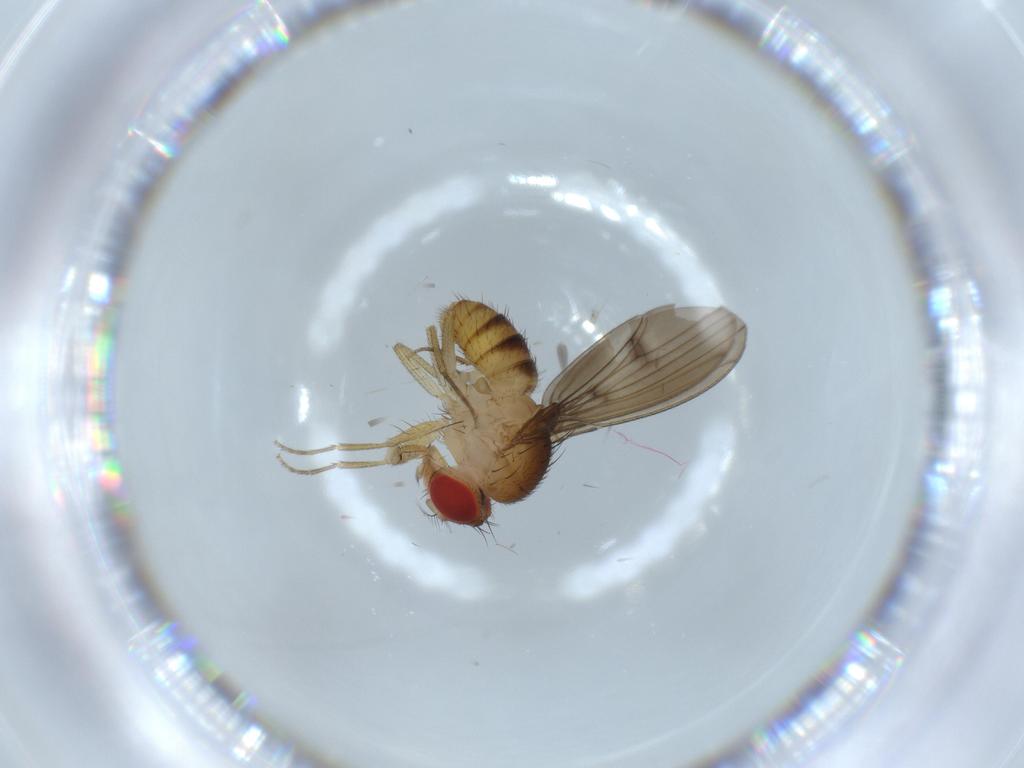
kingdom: Animalia
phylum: Arthropoda
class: Insecta
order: Diptera
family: Drosophilidae
